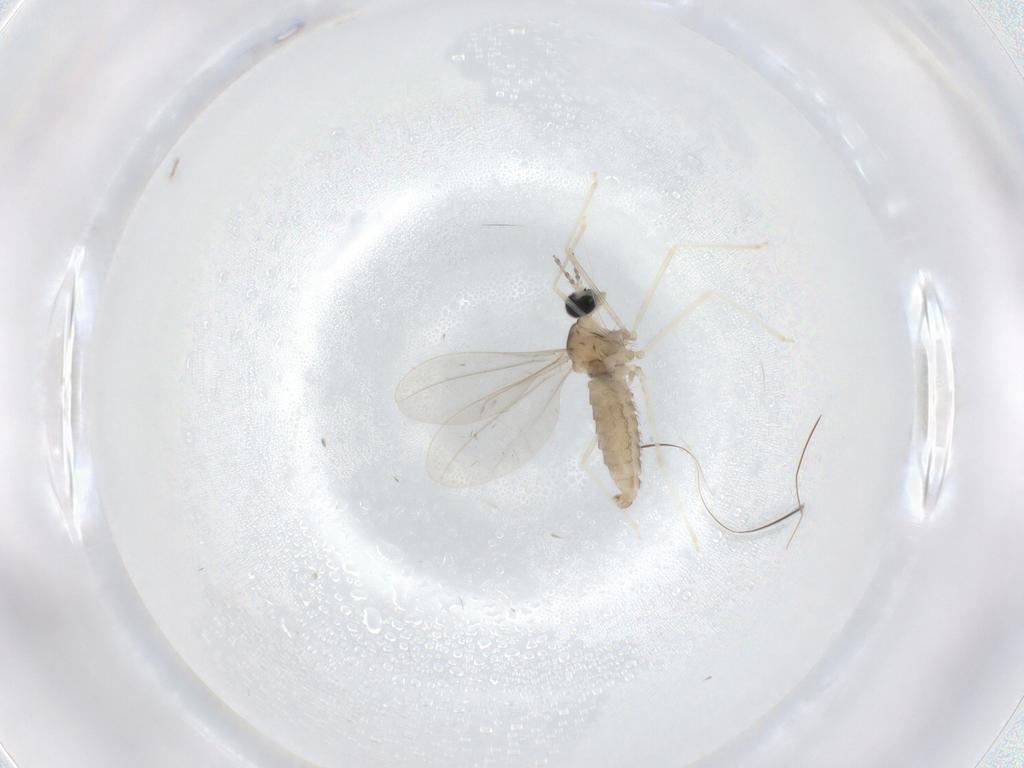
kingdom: Animalia
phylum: Arthropoda
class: Insecta
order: Diptera
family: Cecidomyiidae
